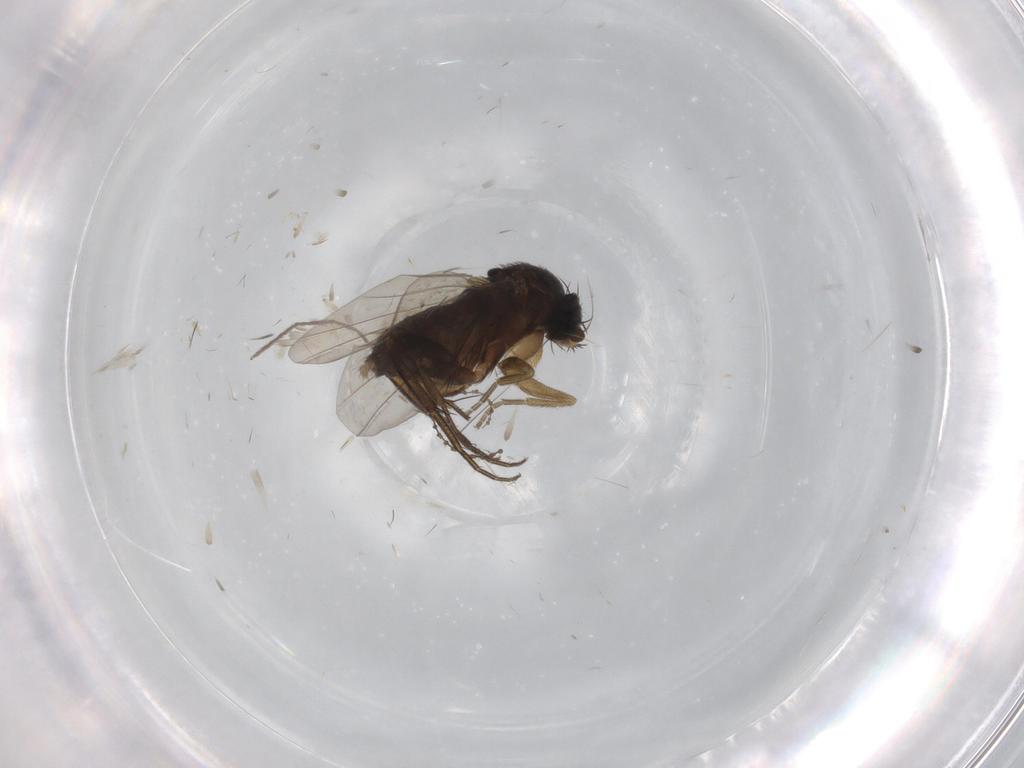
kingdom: Animalia
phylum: Arthropoda
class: Insecta
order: Diptera
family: Phoridae
